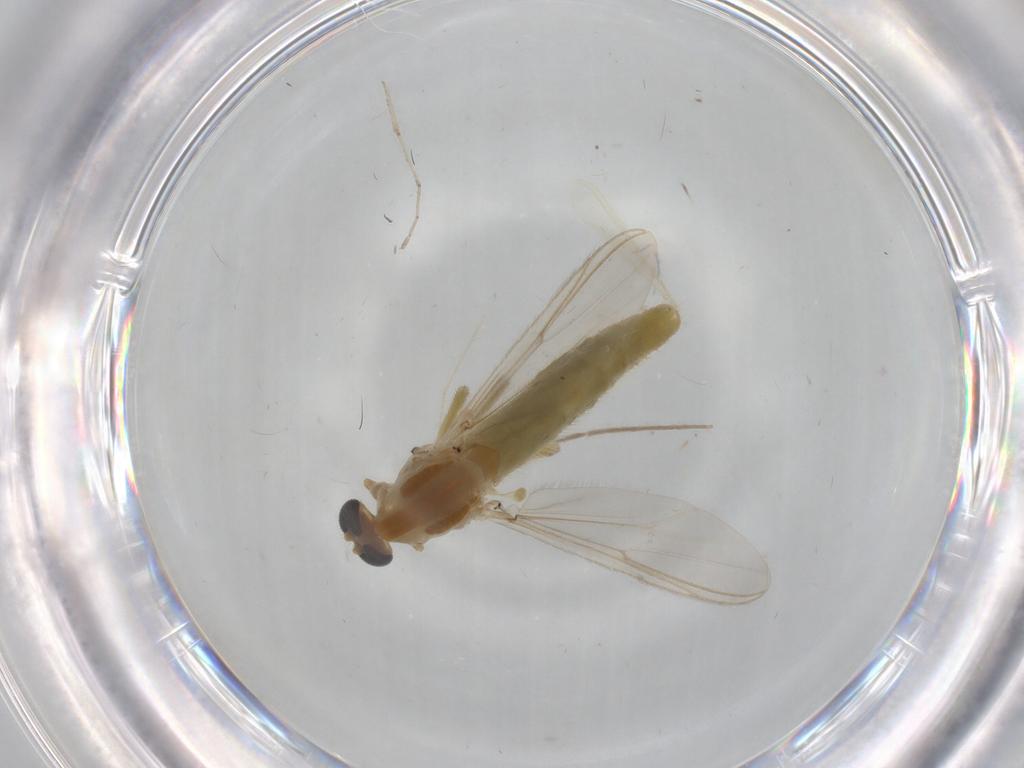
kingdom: Animalia
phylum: Arthropoda
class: Insecta
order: Diptera
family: Chironomidae
